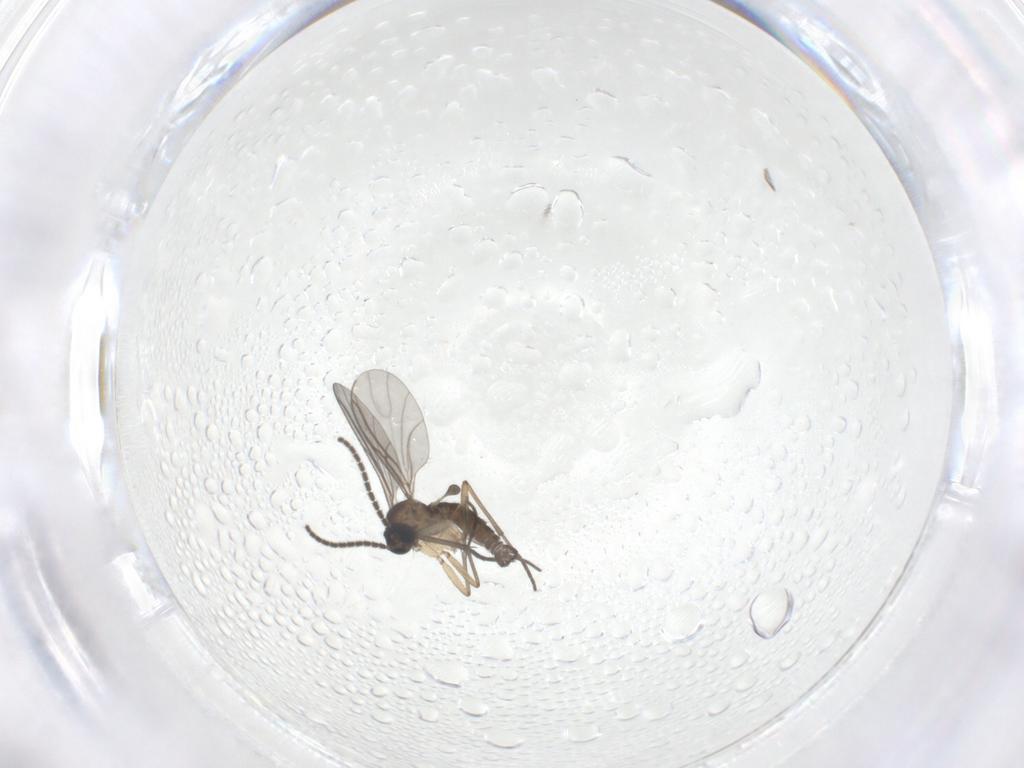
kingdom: Animalia
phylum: Arthropoda
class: Insecta
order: Diptera
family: Sciaridae
